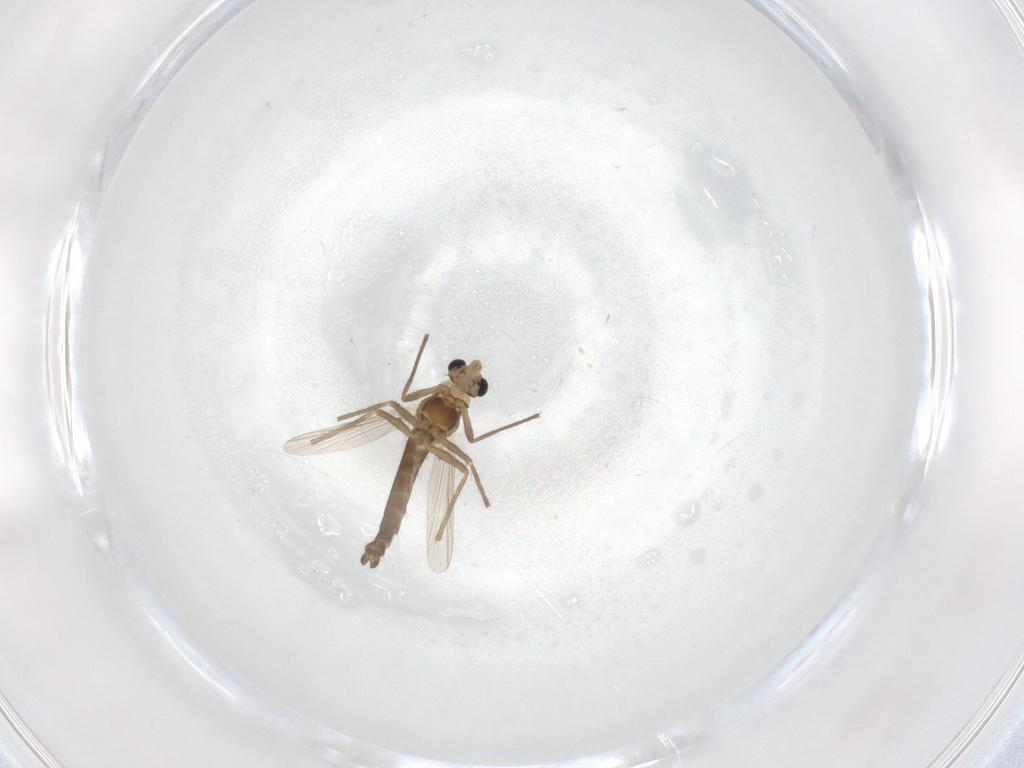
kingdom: Animalia
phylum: Arthropoda
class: Insecta
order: Diptera
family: Chironomidae
